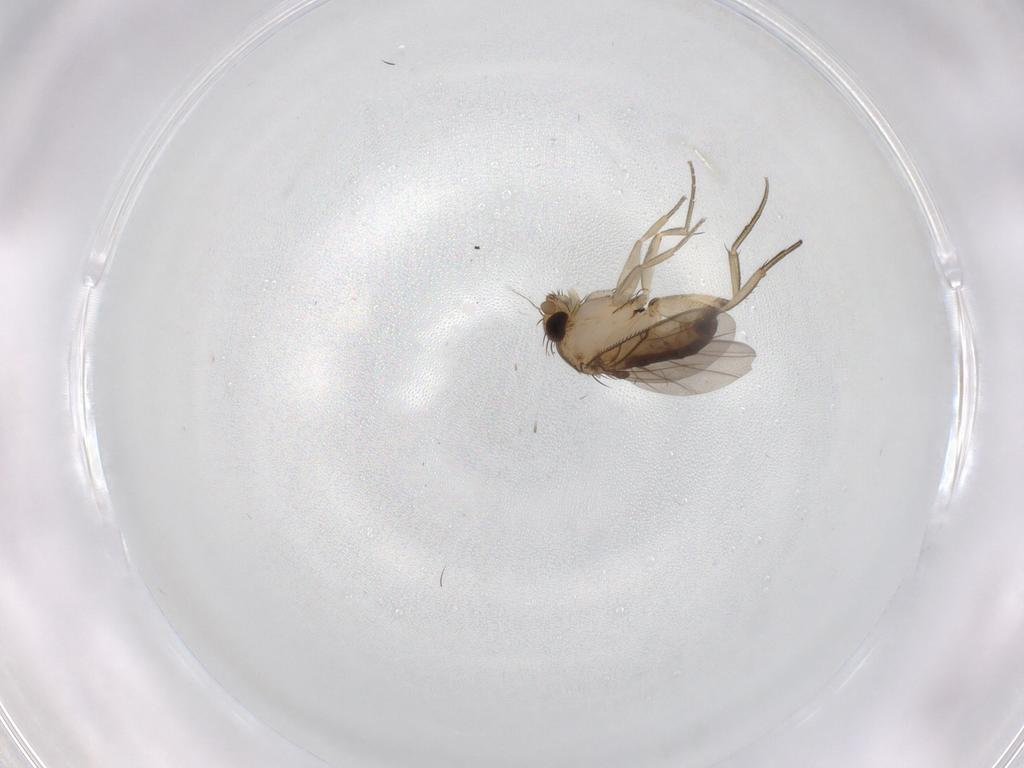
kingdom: Animalia
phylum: Arthropoda
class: Insecta
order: Diptera
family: Phoridae
